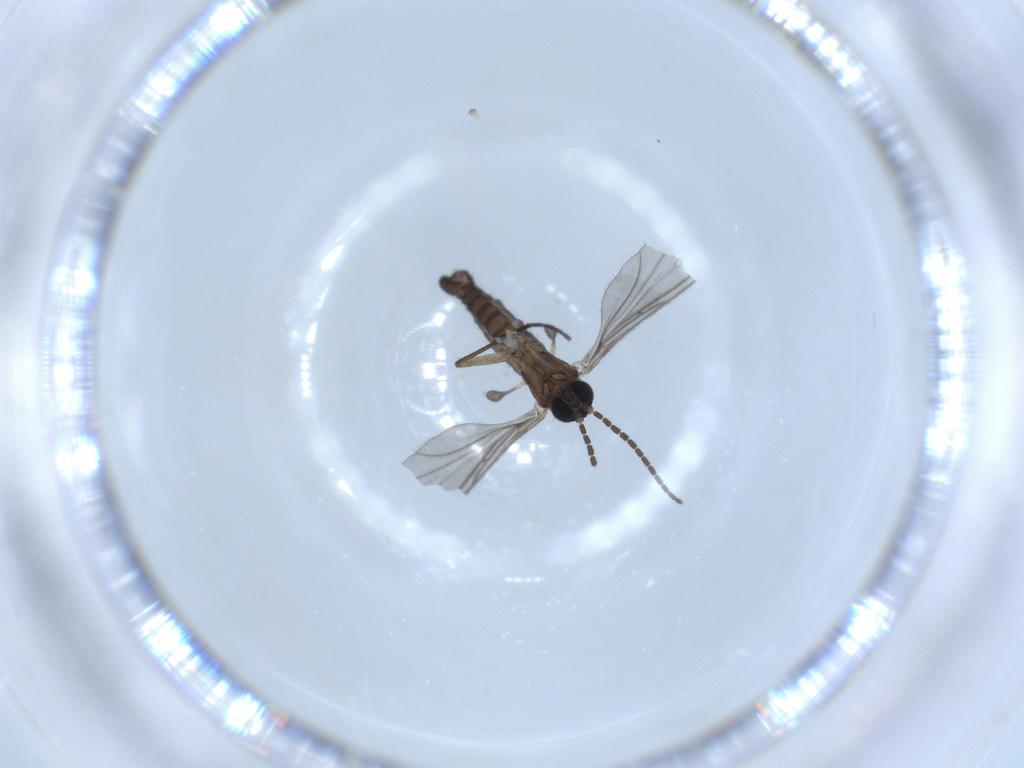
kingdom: Animalia
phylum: Arthropoda
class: Insecta
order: Diptera
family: Sciaridae
